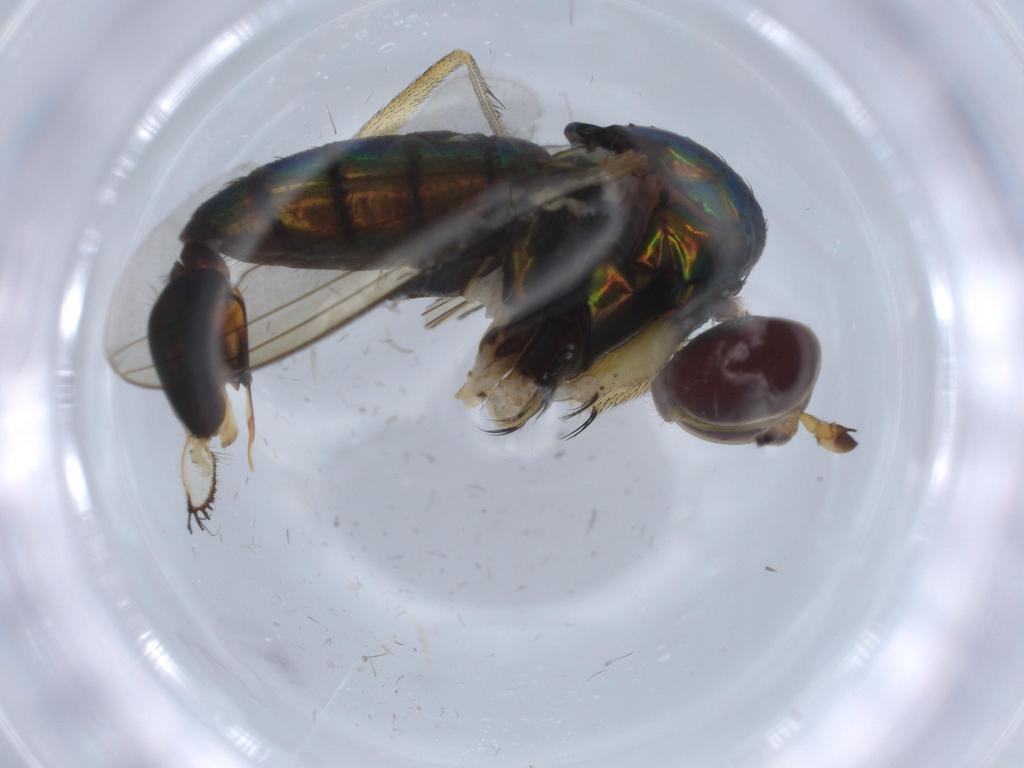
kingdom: Animalia
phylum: Arthropoda
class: Insecta
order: Diptera
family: Dolichopodidae
